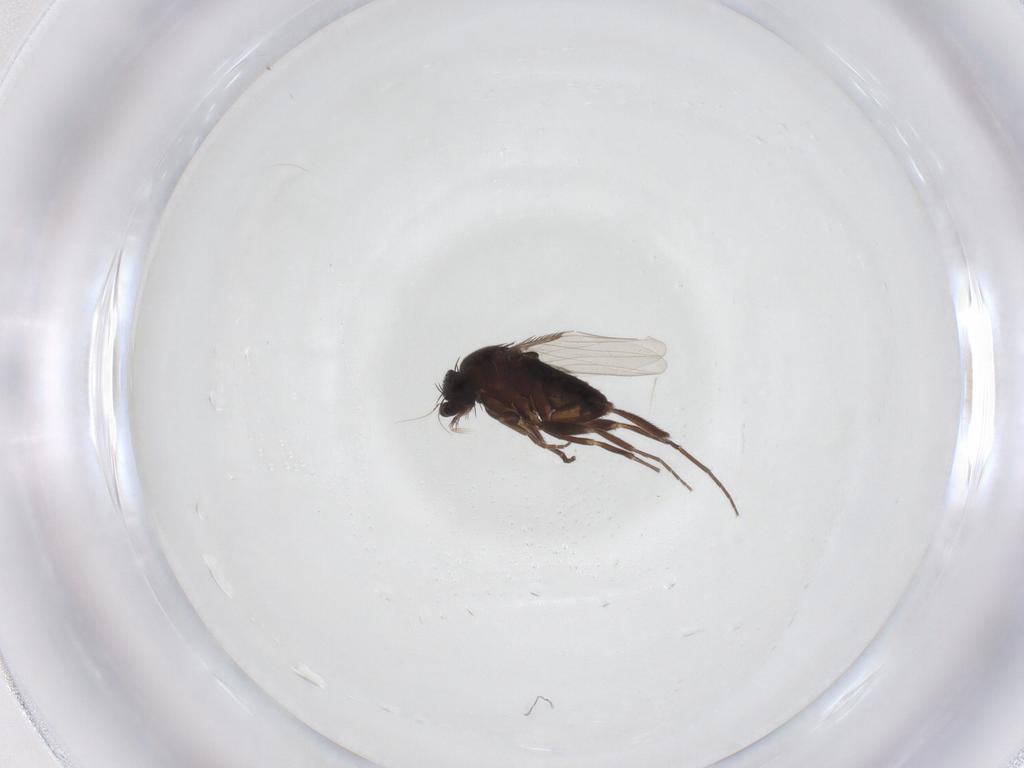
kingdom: Animalia
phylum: Arthropoda
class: Insecta
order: Diptera
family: Phoridae
